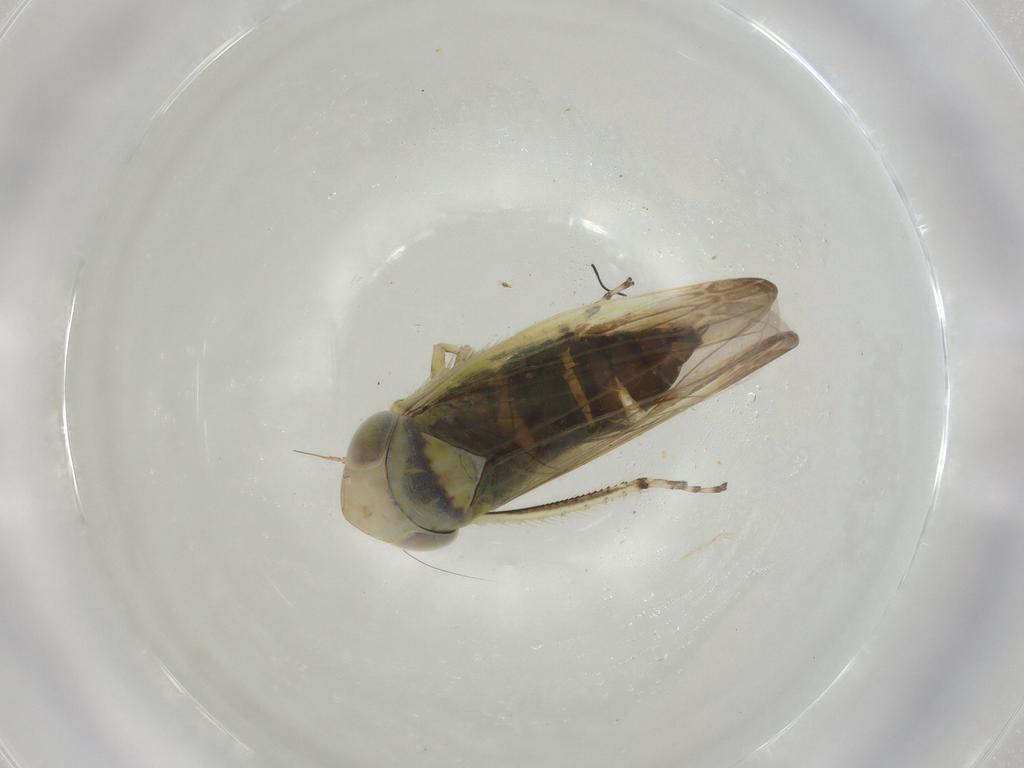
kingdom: Animalia
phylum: Arthropoda
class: Insecta
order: Hemiptera
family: Cicadellidae
